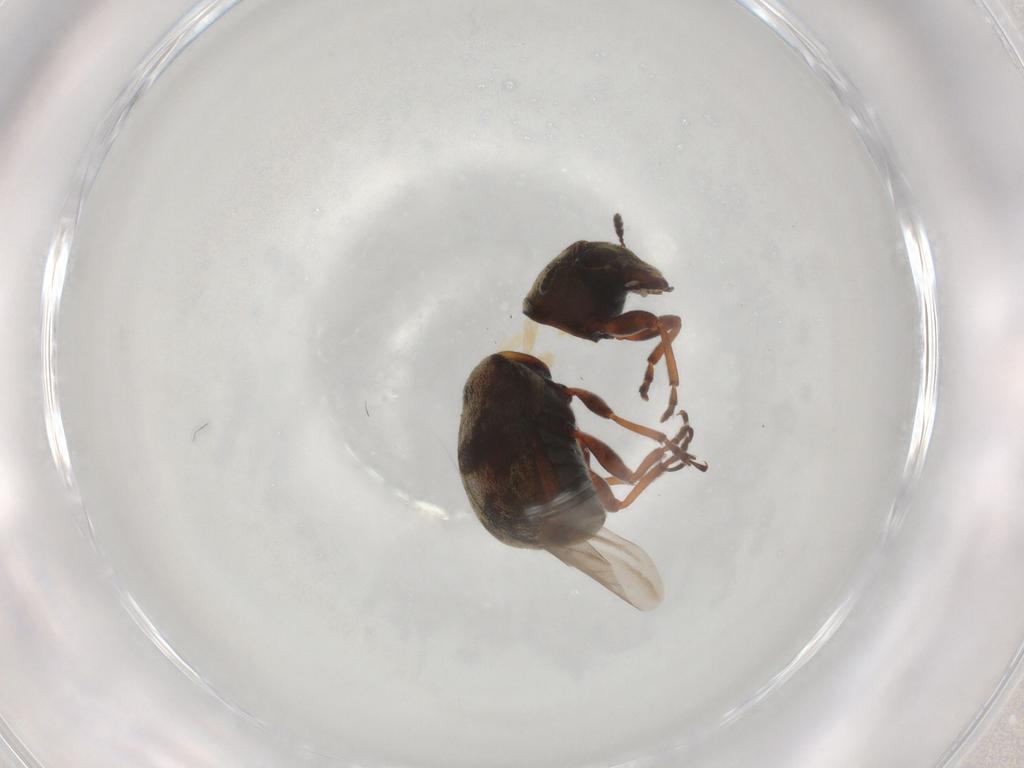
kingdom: Animalia
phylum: Arthropoda
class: Insecta
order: Coleoptera
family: Anthribidae
